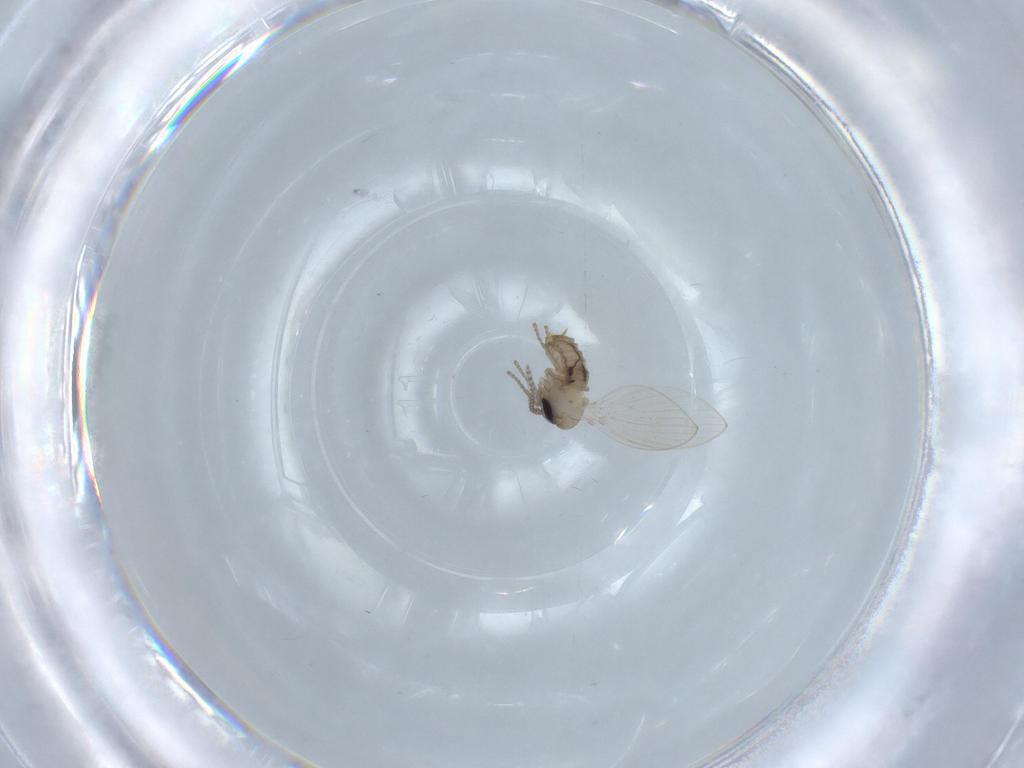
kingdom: Animalia
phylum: Arthropoda
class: Insecta
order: Diptera
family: Psychodidae
